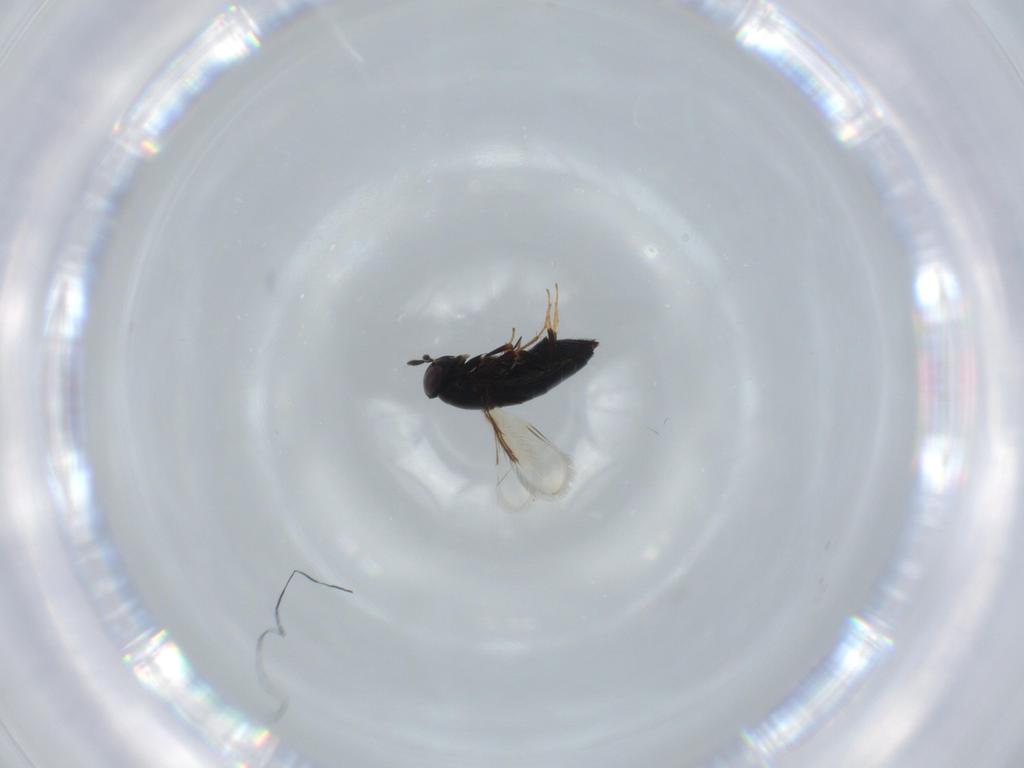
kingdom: Animalia
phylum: Arthropoda
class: Insecta
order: Hymenoptera
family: Signiphoridae
